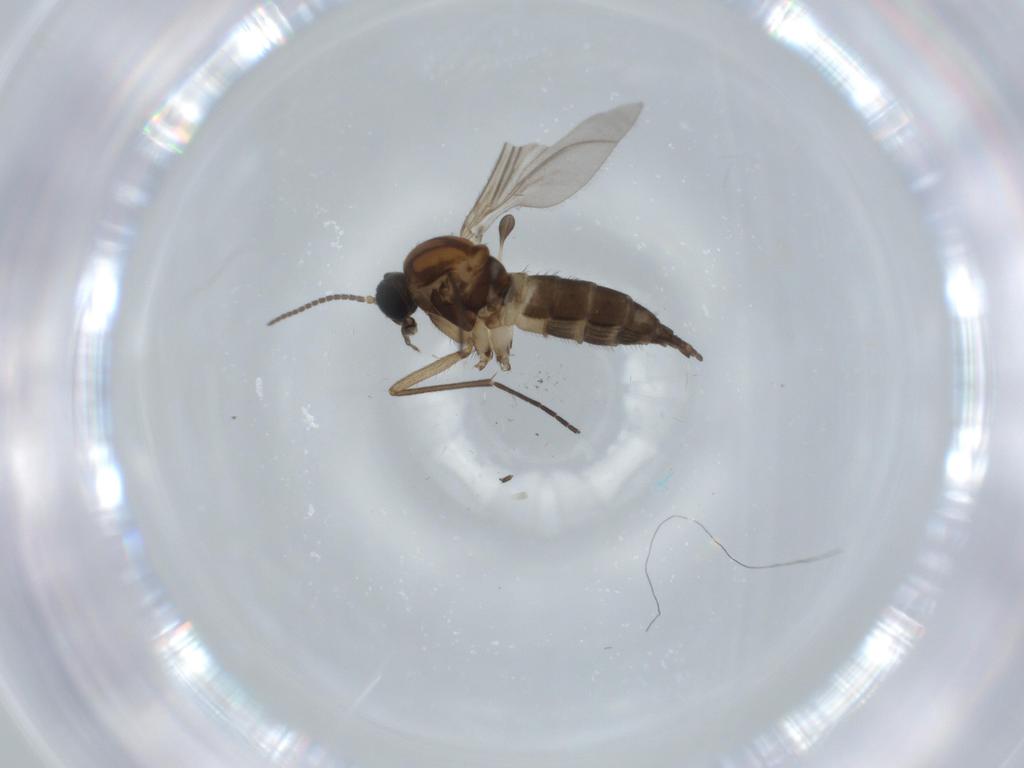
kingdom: Animalia
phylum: Arthropoda
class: Insecta
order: Diptera
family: Sciaridae
